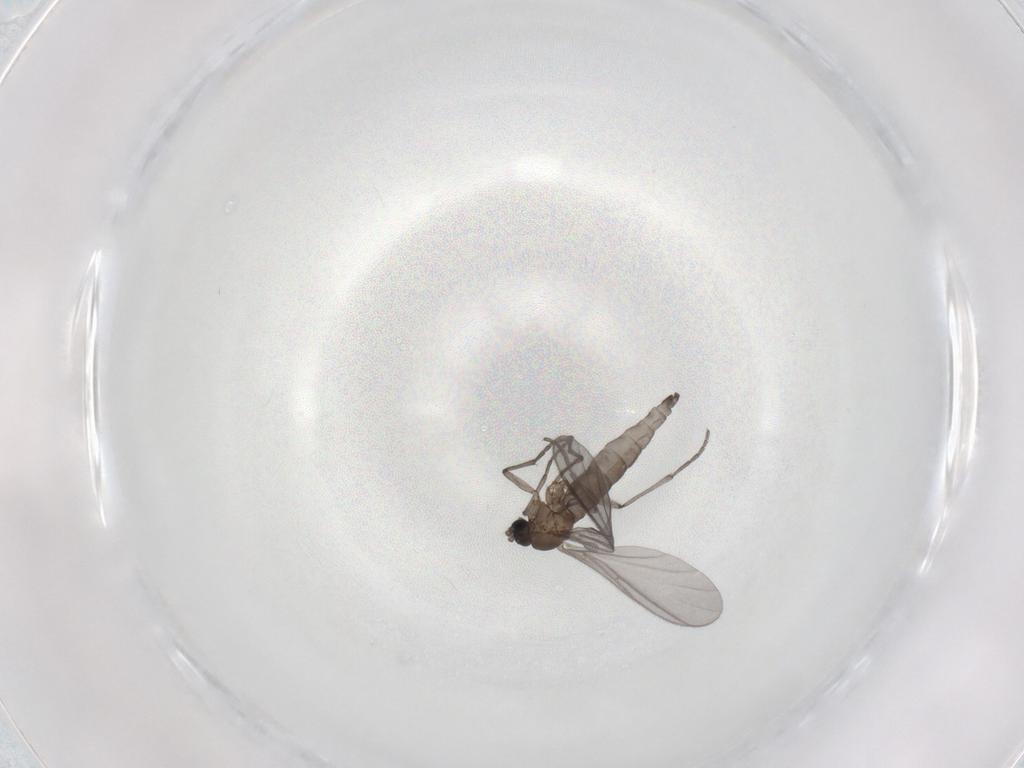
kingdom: Animalia
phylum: Arthropoda
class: Insecta
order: Diptera
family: Sciaridae
